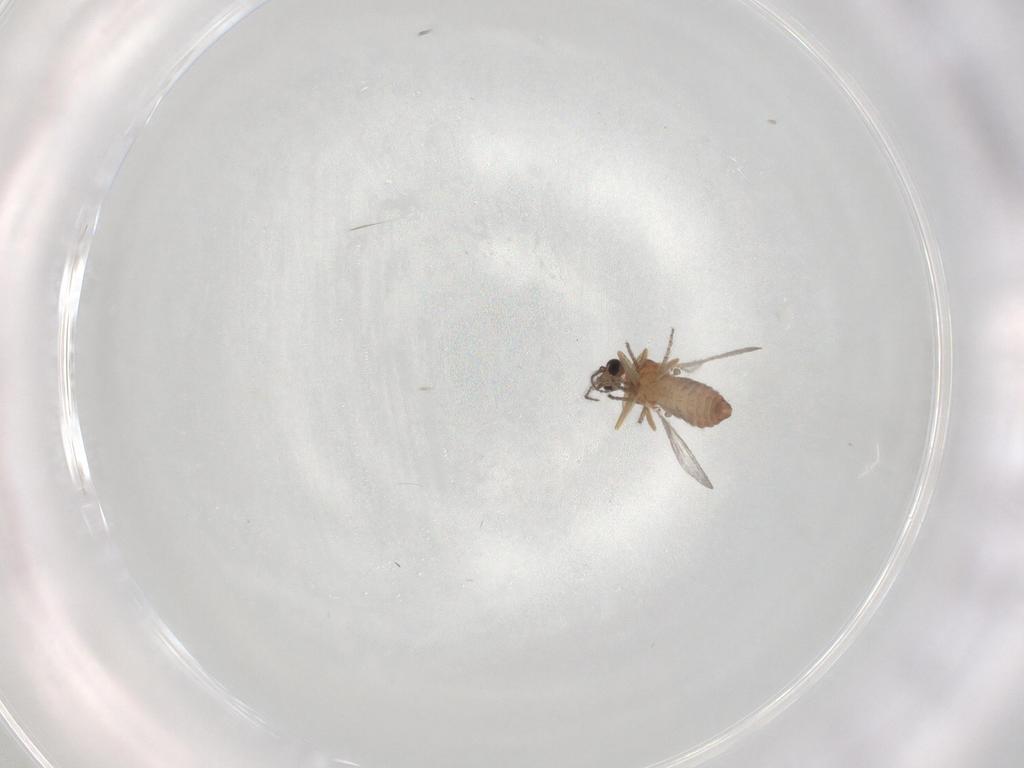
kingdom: Animalia
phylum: Arthropoda
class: Insecta
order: Diptera
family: Ceratopogonidae
